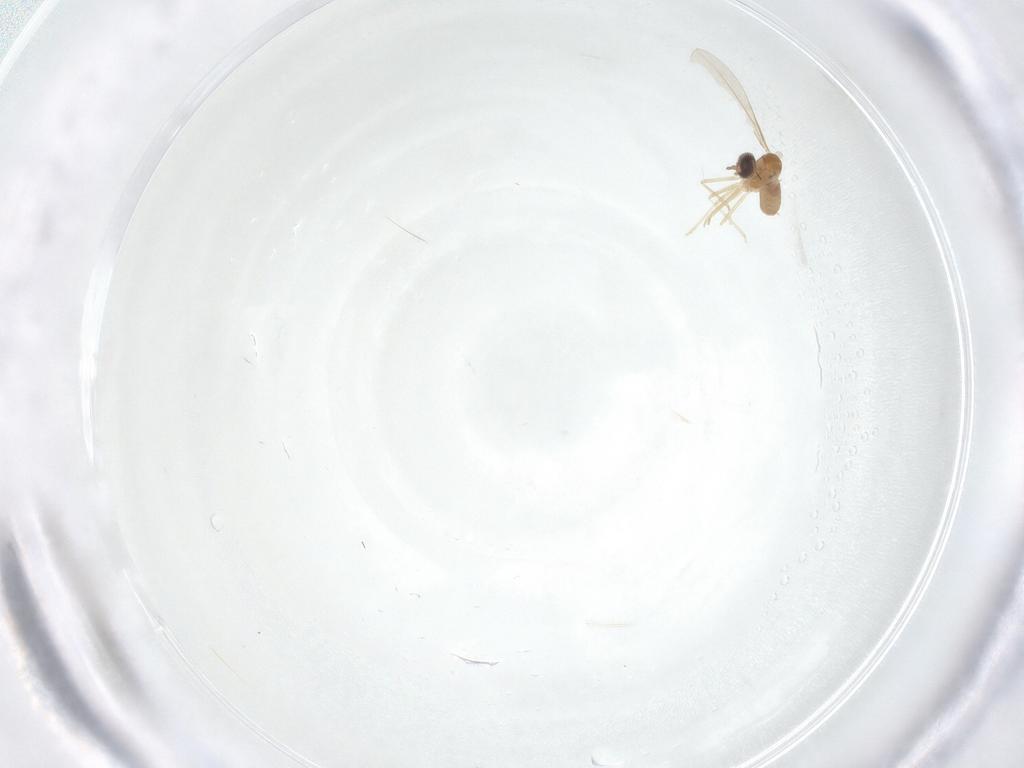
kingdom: Animalia
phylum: Arthropoda
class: Insecta
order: Diptera
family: Cecidomyiidae
